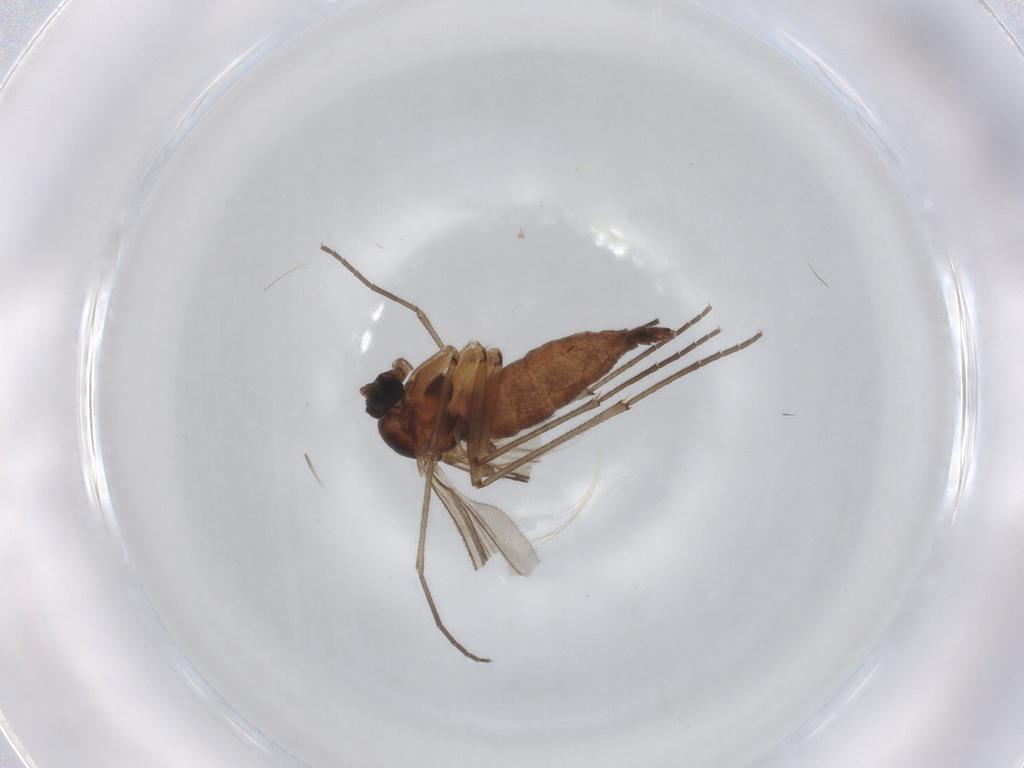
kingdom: Animalia
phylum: Arthropoda
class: Insecta
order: Diptera
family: Sciaridae
